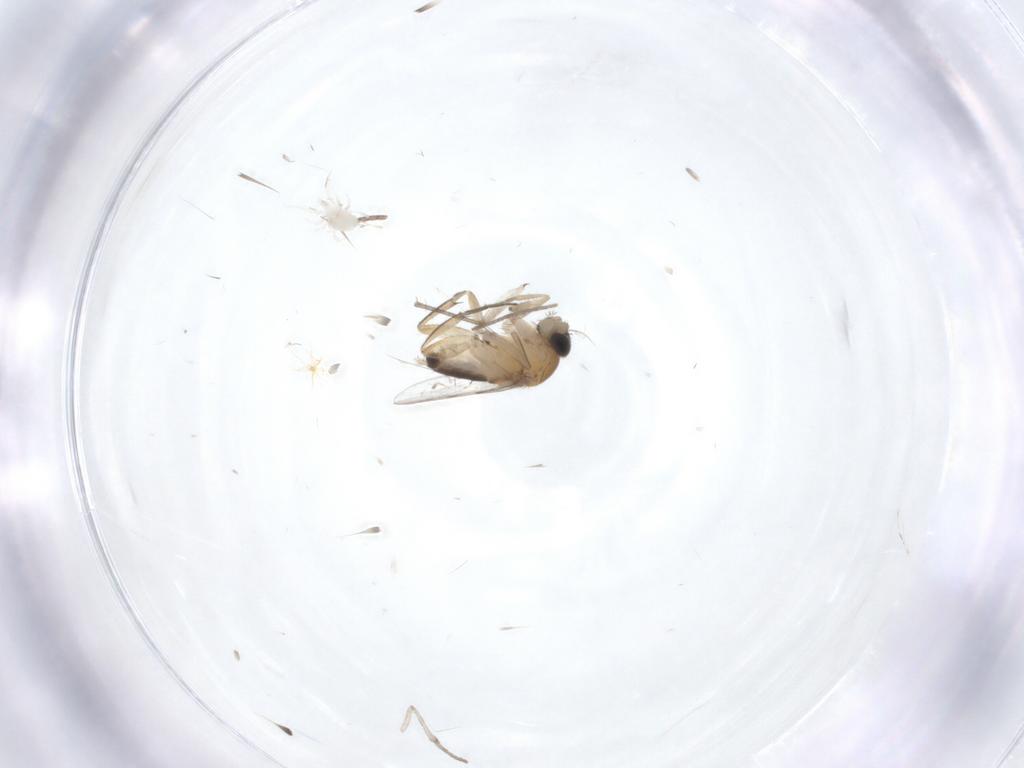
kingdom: Animalia
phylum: Arthropoda
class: Insecta
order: Diptera
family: Phoridae
